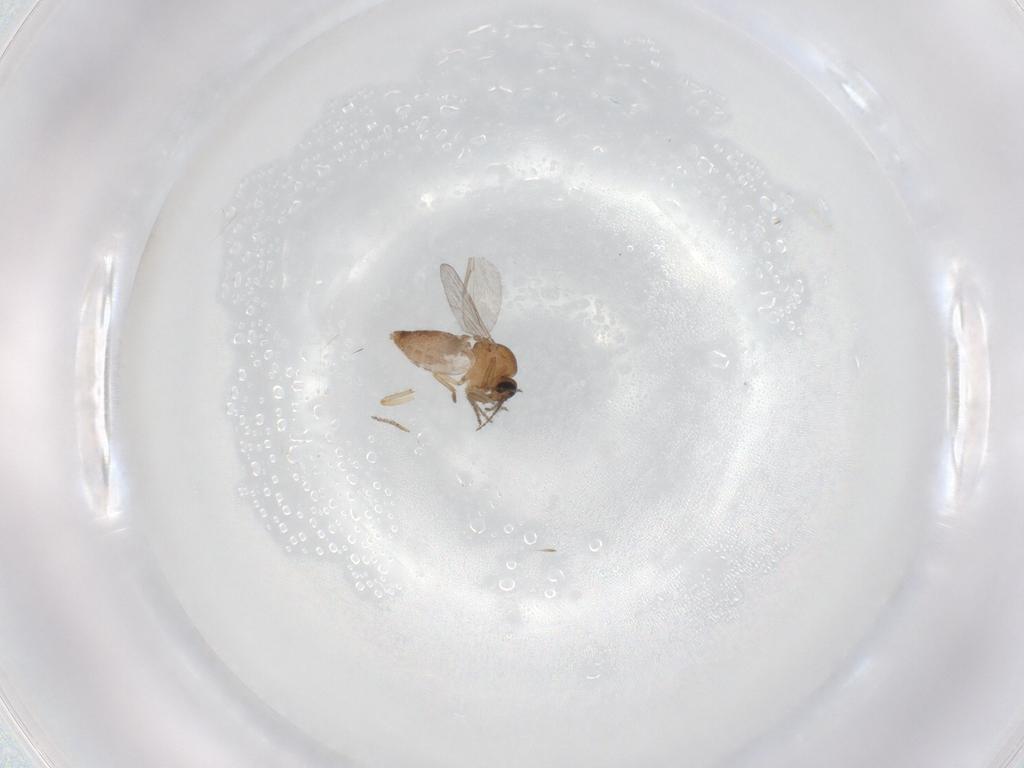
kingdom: Animalia
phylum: Arthropoda
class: Insecta
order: Diptera
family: Ceratopogonidae
